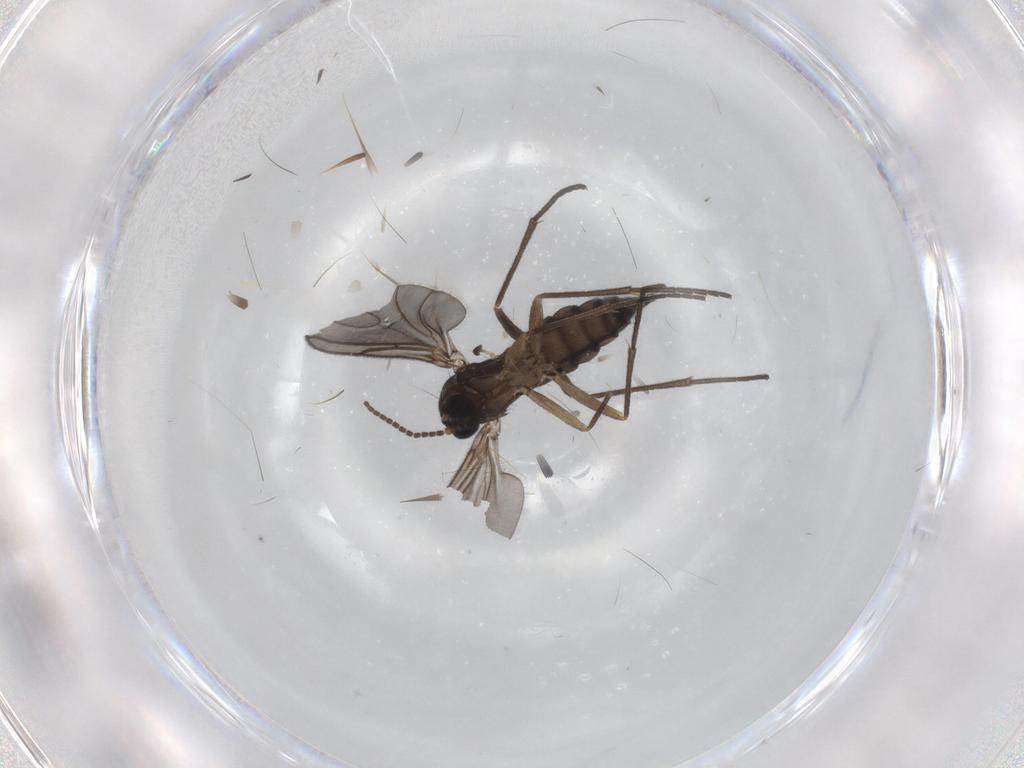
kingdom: Animalia
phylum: Arthropoda
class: Insecta
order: Diptera
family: Sciaridae
